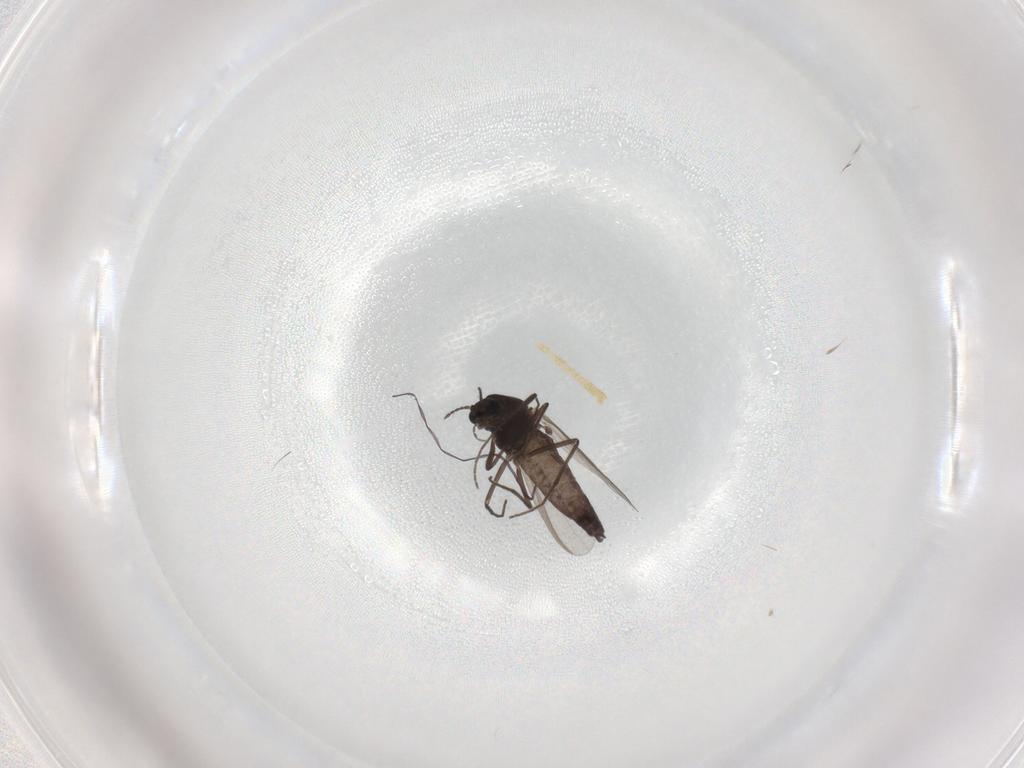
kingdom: Animalia
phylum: Arthropoda
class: Insecta
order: Diptera
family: Chironomidae
